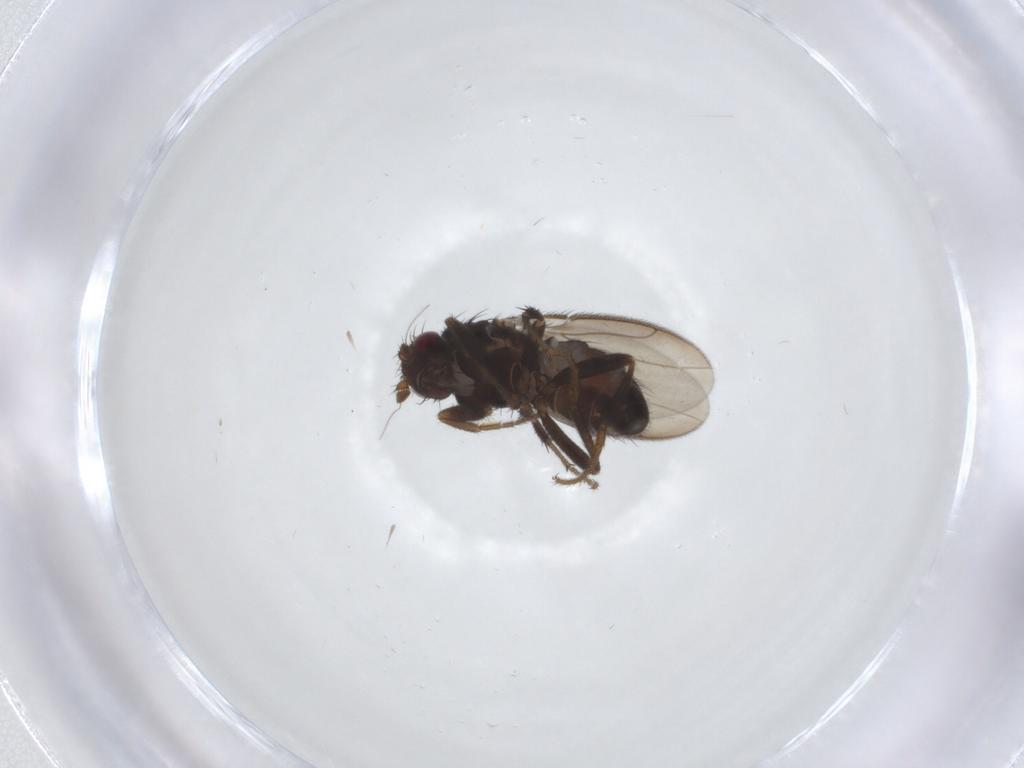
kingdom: Animalia
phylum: Arthropoda
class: Insecta
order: Diptera
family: Sphaeroceridae
